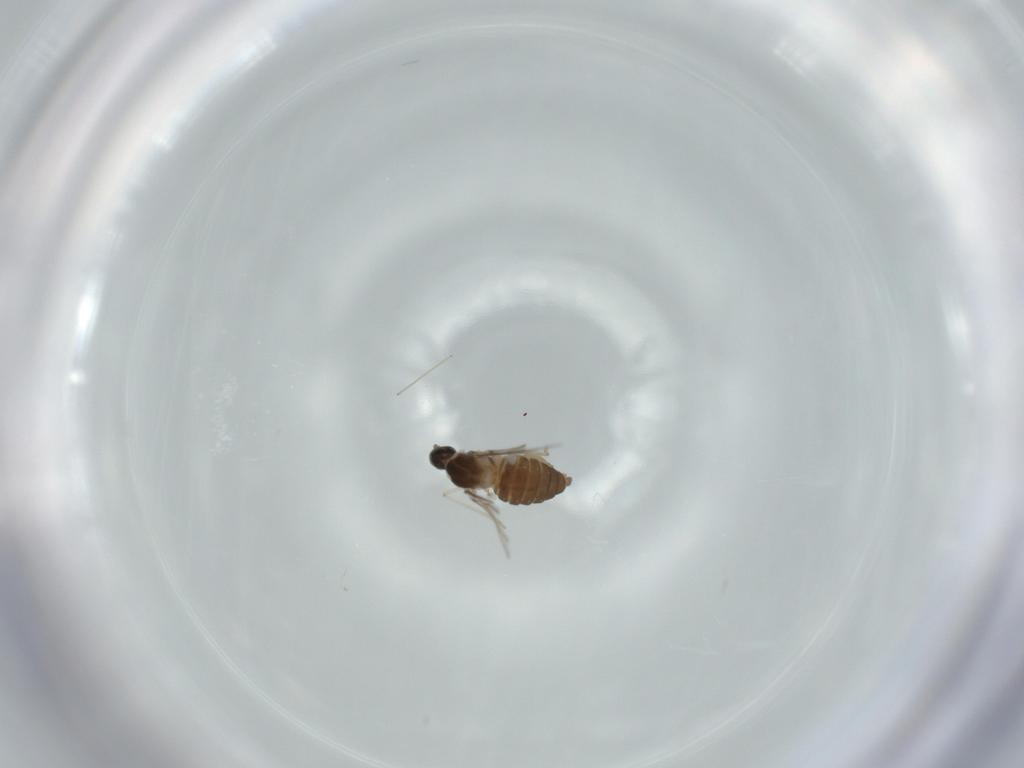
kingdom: Animalia
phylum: Arthropoda
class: Insecta
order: Diptera
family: Cecidomyiidae
